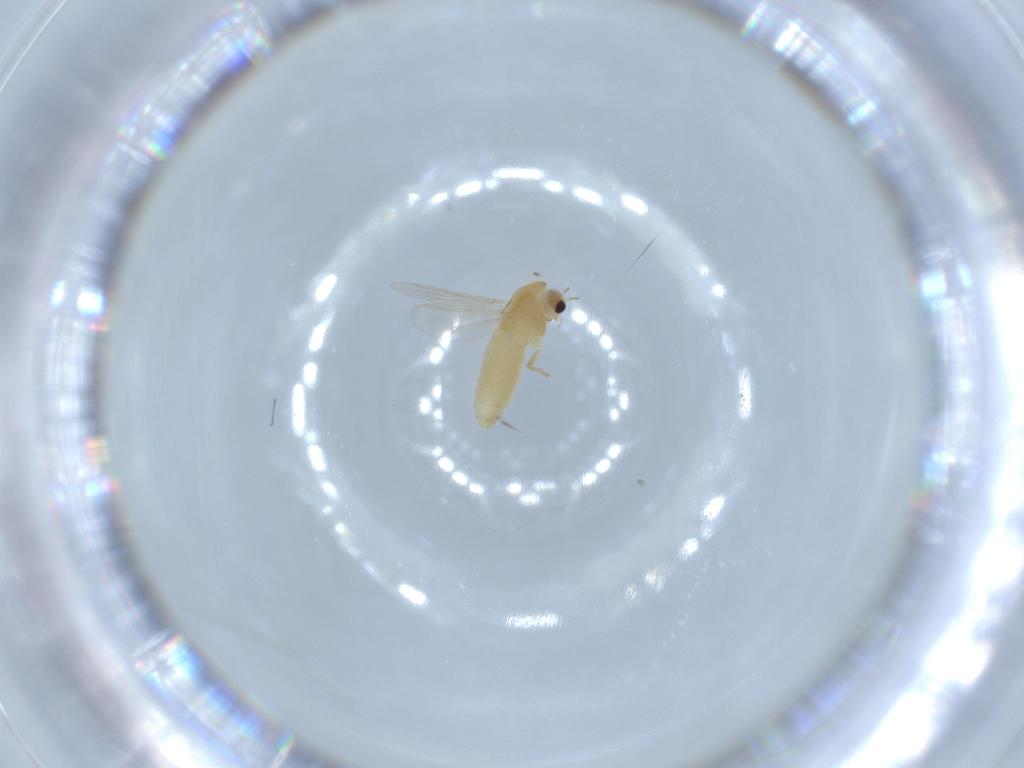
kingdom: Animalia
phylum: Arthropoda
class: Insecta
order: Diptera
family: Chironomidae
